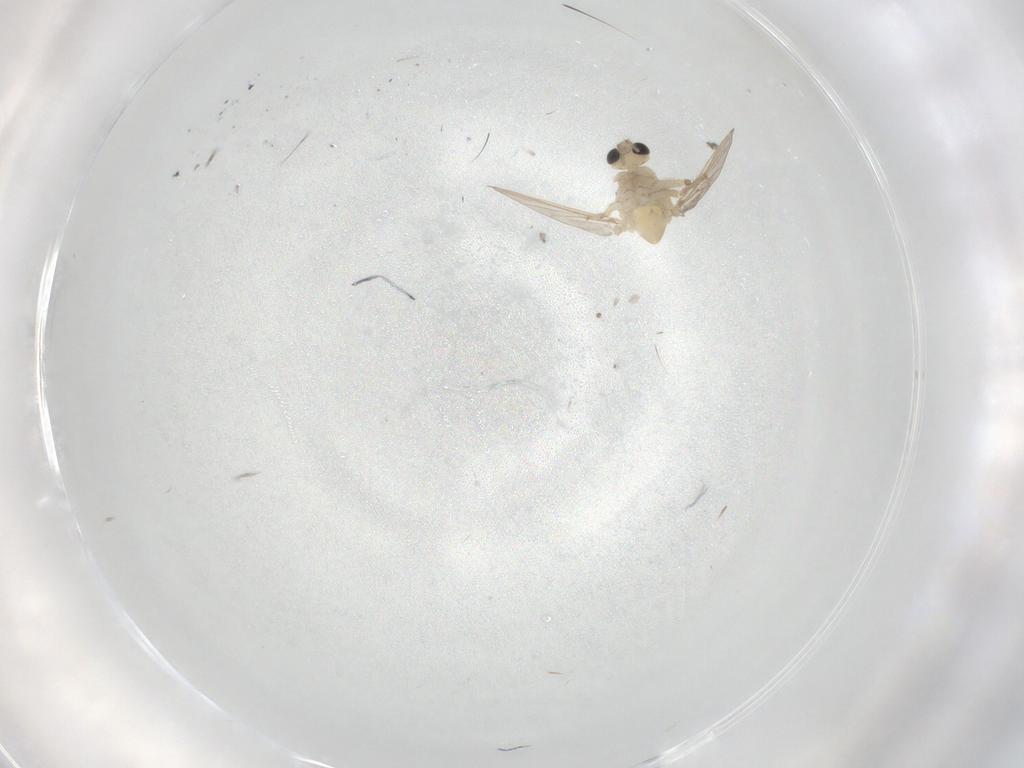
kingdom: Animalia
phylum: Arthropoda
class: Insecta
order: Diptera
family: Chironomidae
